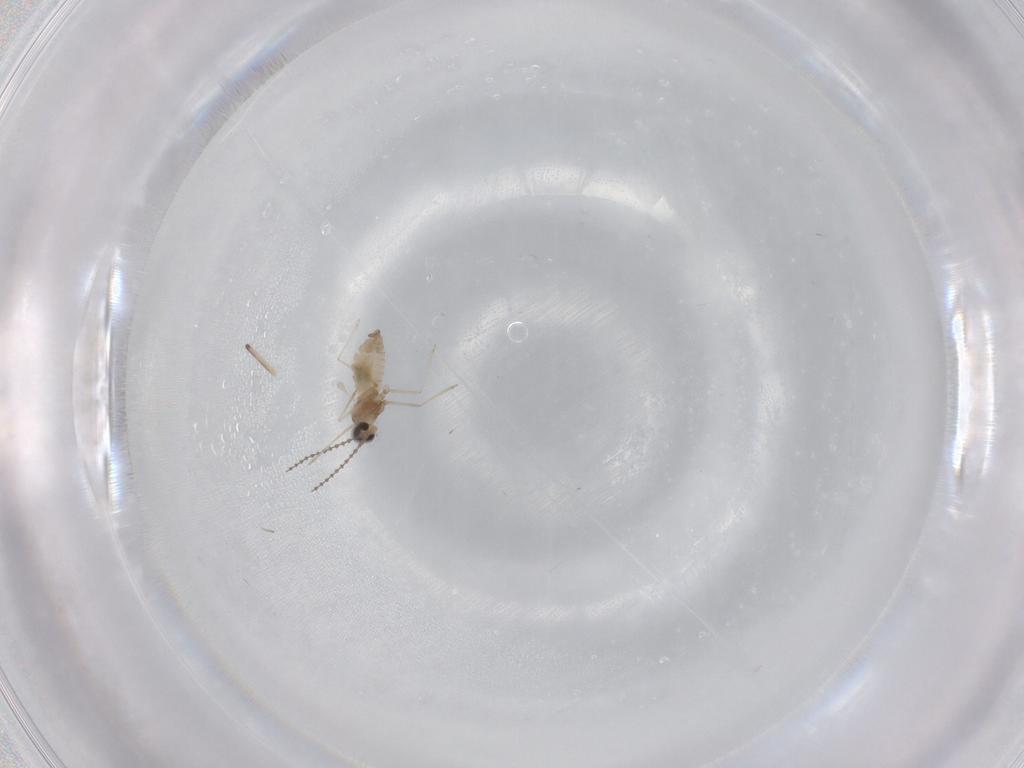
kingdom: Animalia
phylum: Arthropoda
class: Insecta
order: Diptera
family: Cecidomyiidae
